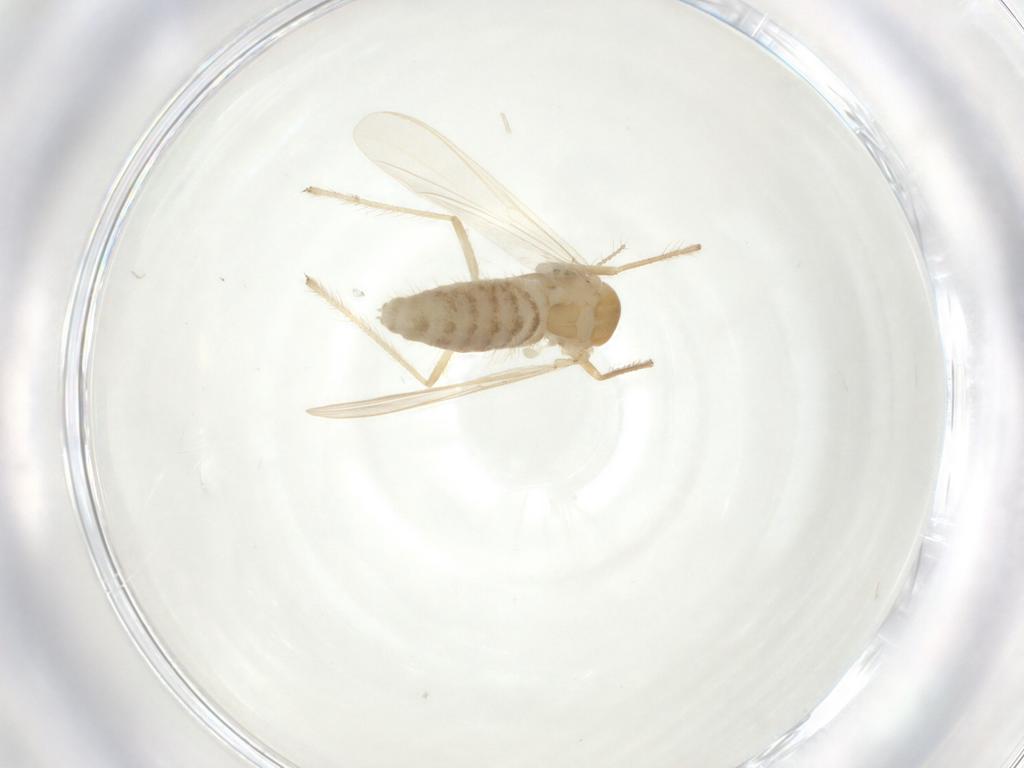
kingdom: Animalia
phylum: Arthropoda
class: Insecta
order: Diptera
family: Chironomidae
